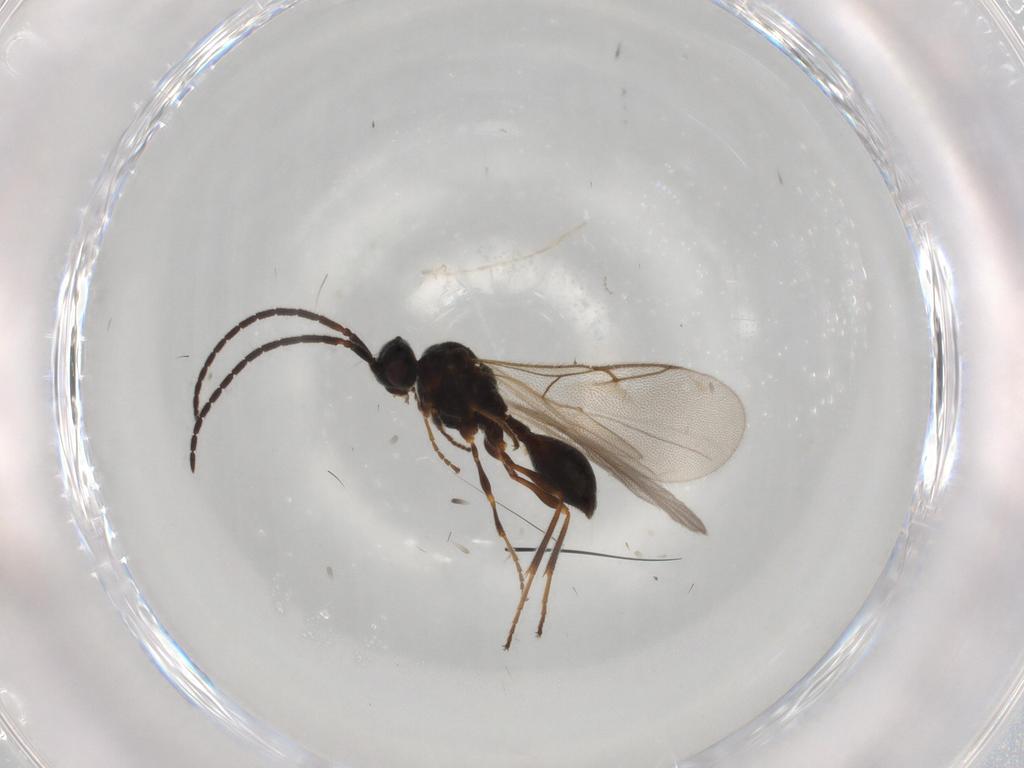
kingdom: Animalia
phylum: Arthropoda
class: Insecta
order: Hymenoptera
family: Diapriidae
